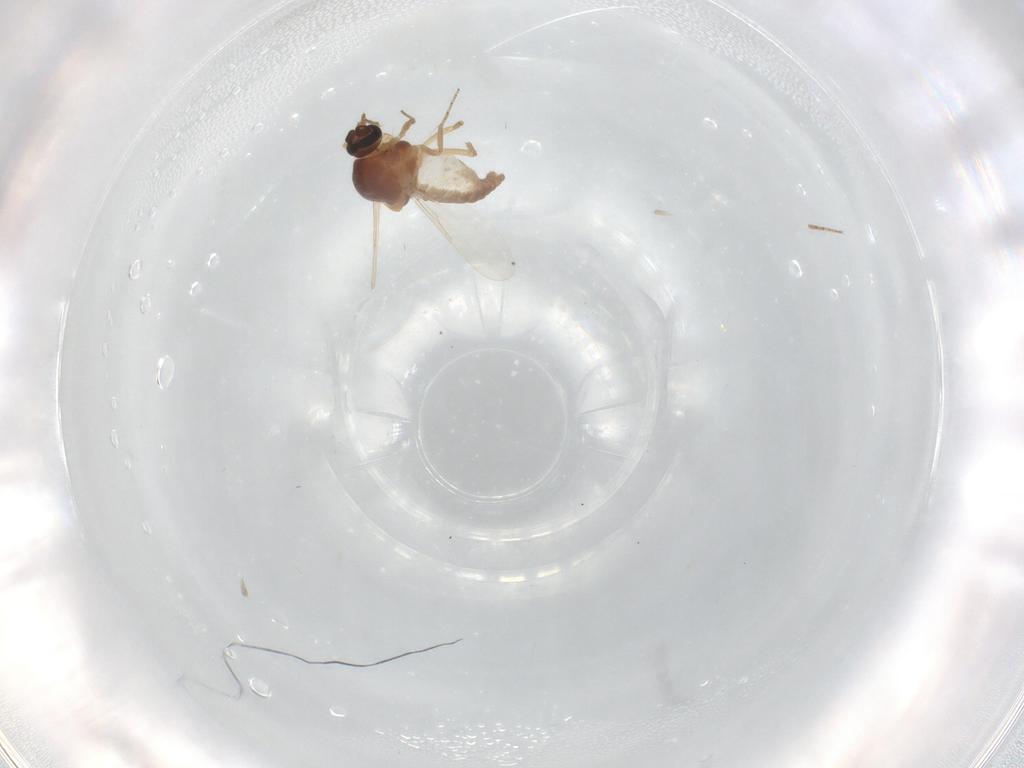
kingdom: Animalia
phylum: Arthropoda
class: Insecta
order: Diptera
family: Ceratopogonidae
